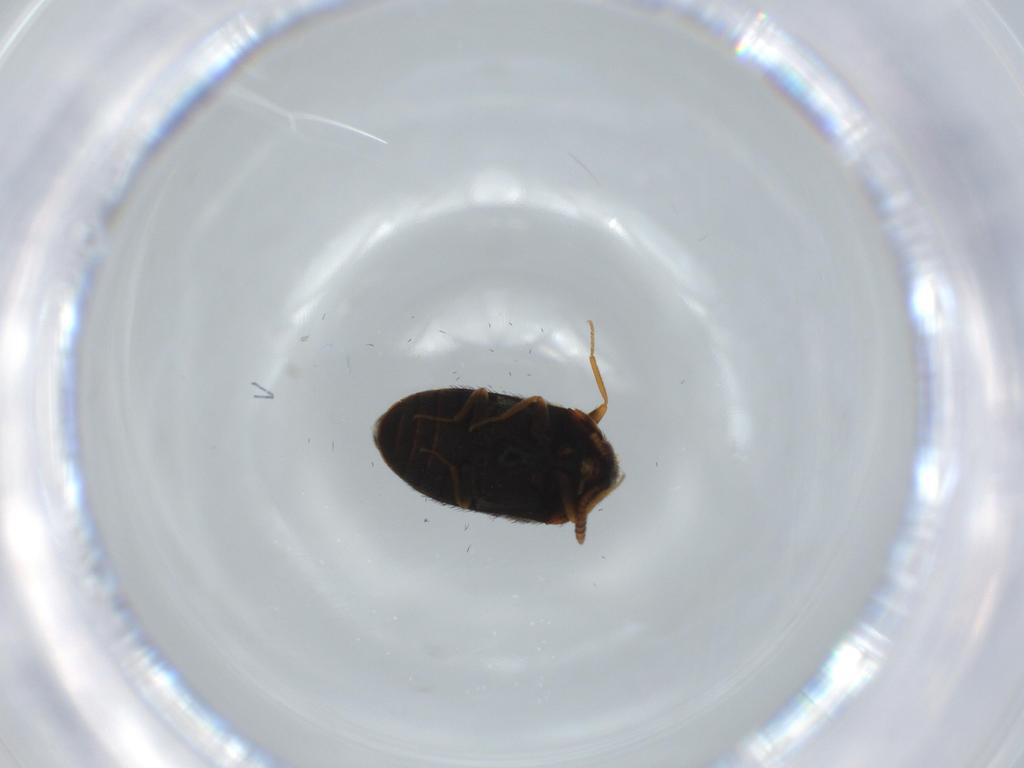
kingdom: Animalia
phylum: Arthropoda
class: Insecta
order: Coleoptera
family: Dermestidae
